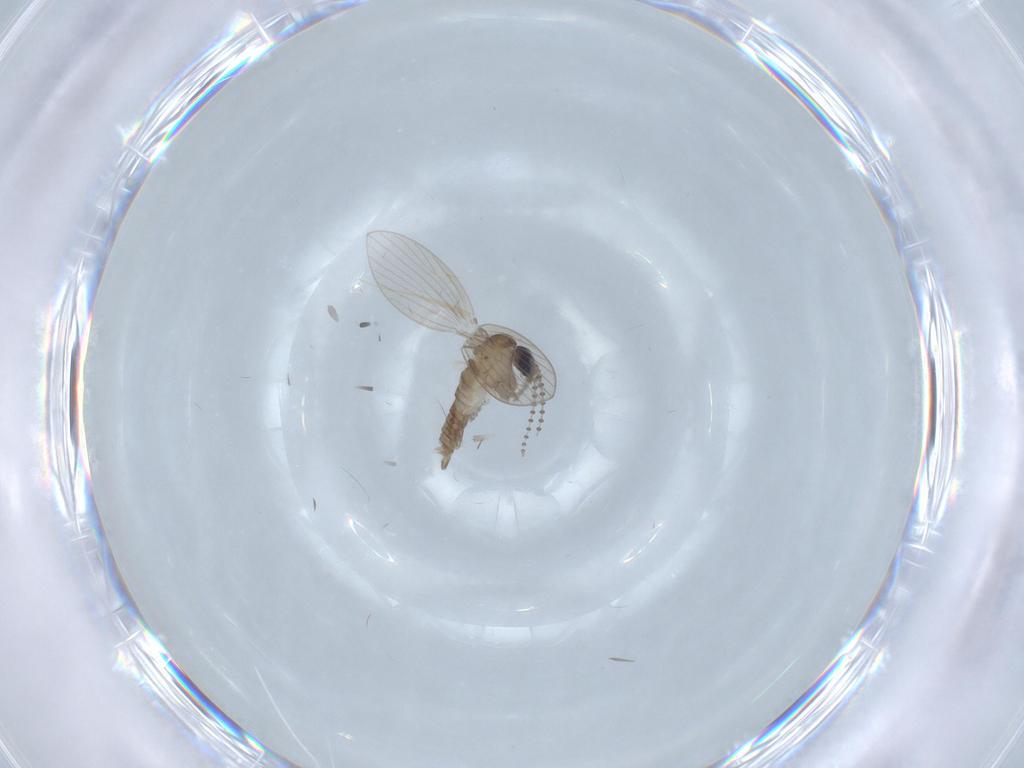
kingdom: Animalia
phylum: Arthropoda
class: Insecta
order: Diptera
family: Psychodidae
